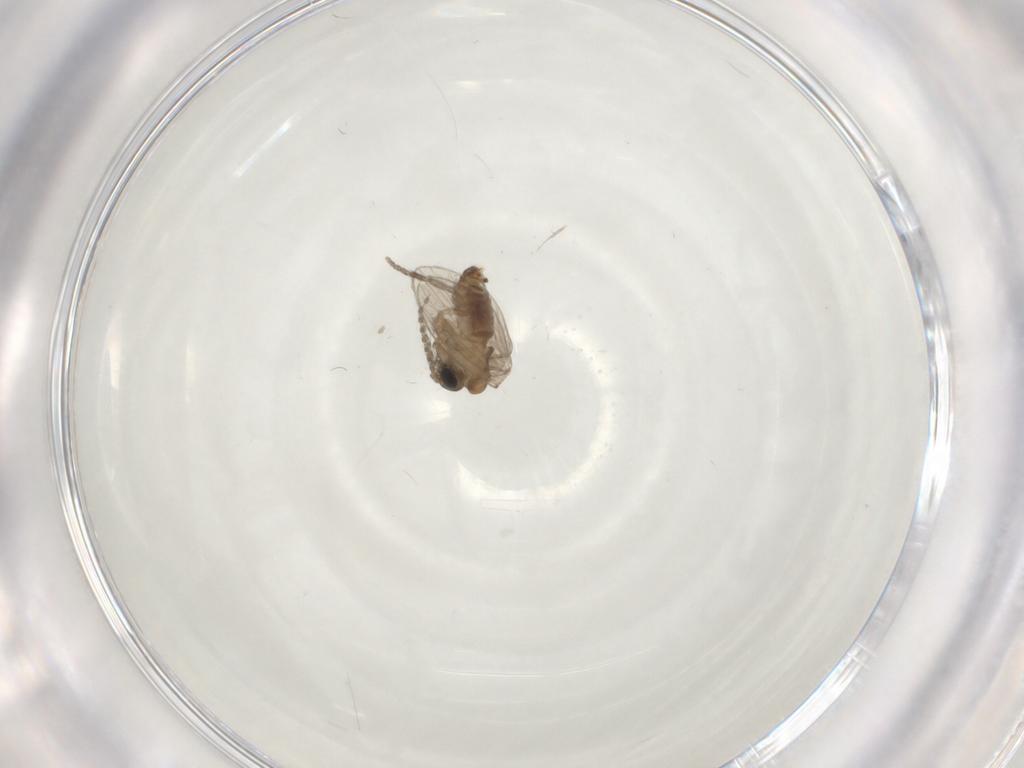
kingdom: Animalia
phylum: Arthropoda
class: Insecta
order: Diptera
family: Psychodidae
